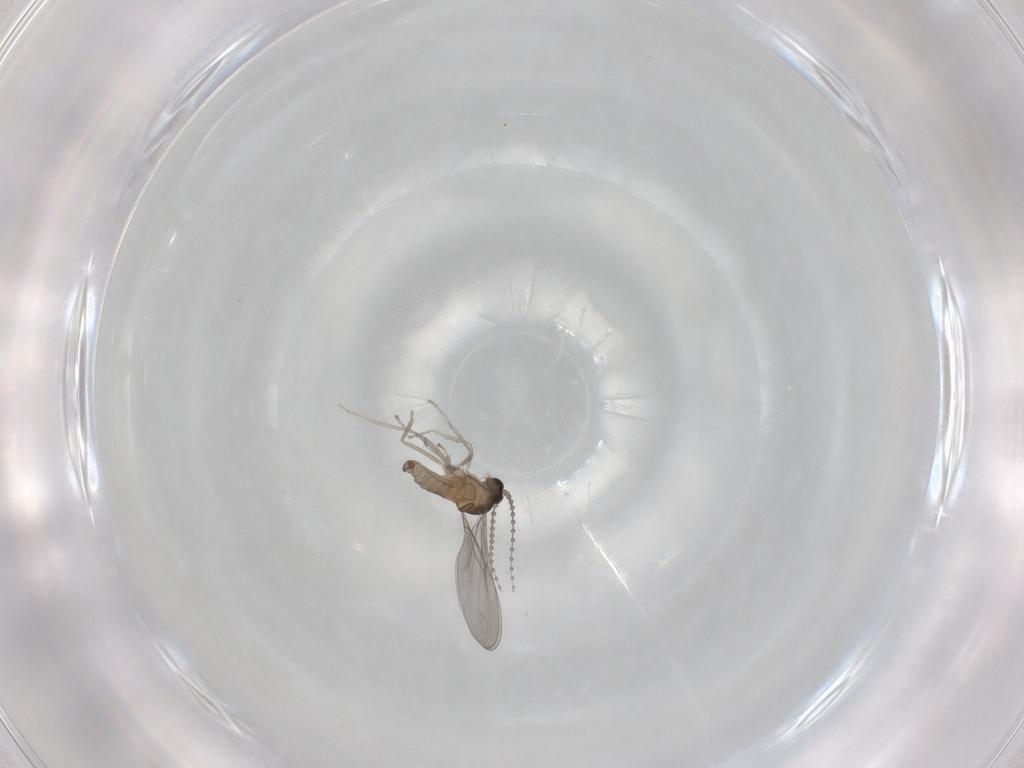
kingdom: Animalia
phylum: Arthropoda
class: Insecta
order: Diptera
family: Cecidomyiidae
